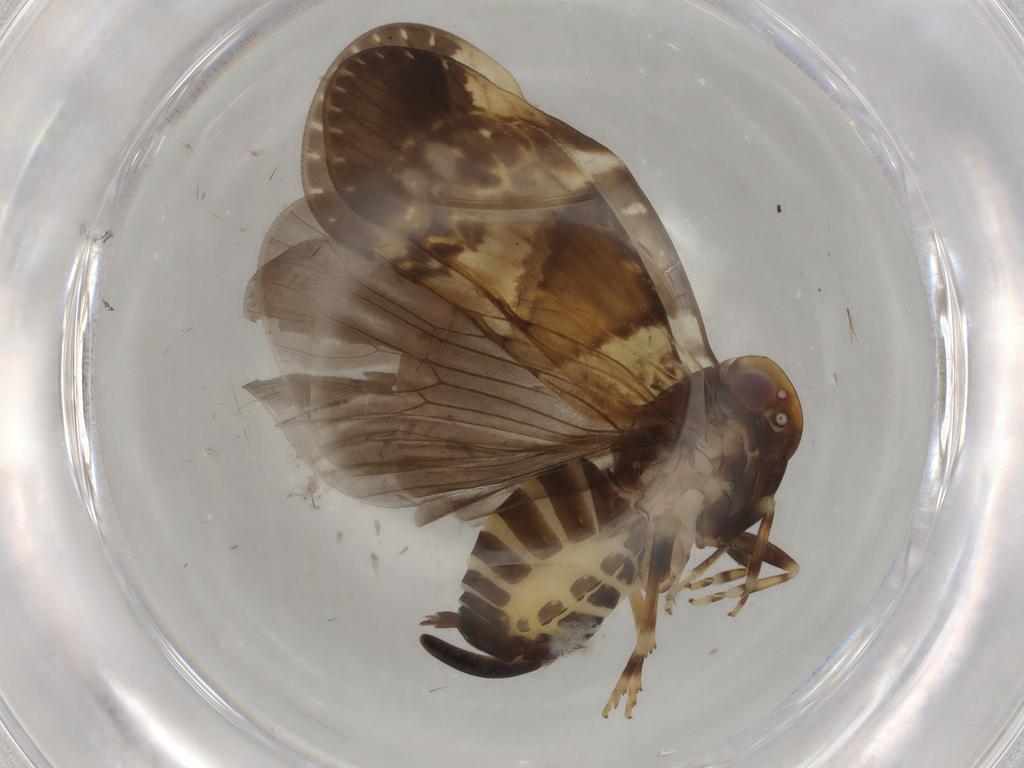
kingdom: Animalia
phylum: Arthropoda
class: Insecta
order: Hemiptera
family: Cixiidae
